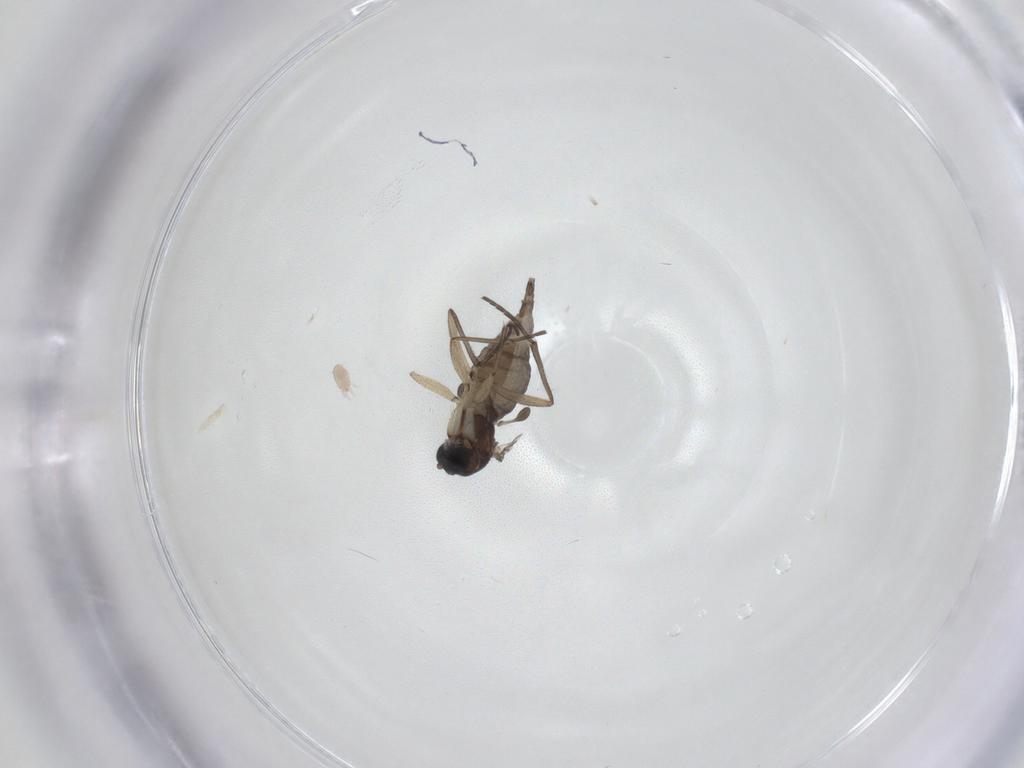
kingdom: Animalia
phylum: Arthropoda
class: Insecta
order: Diptera
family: Sciaridae
